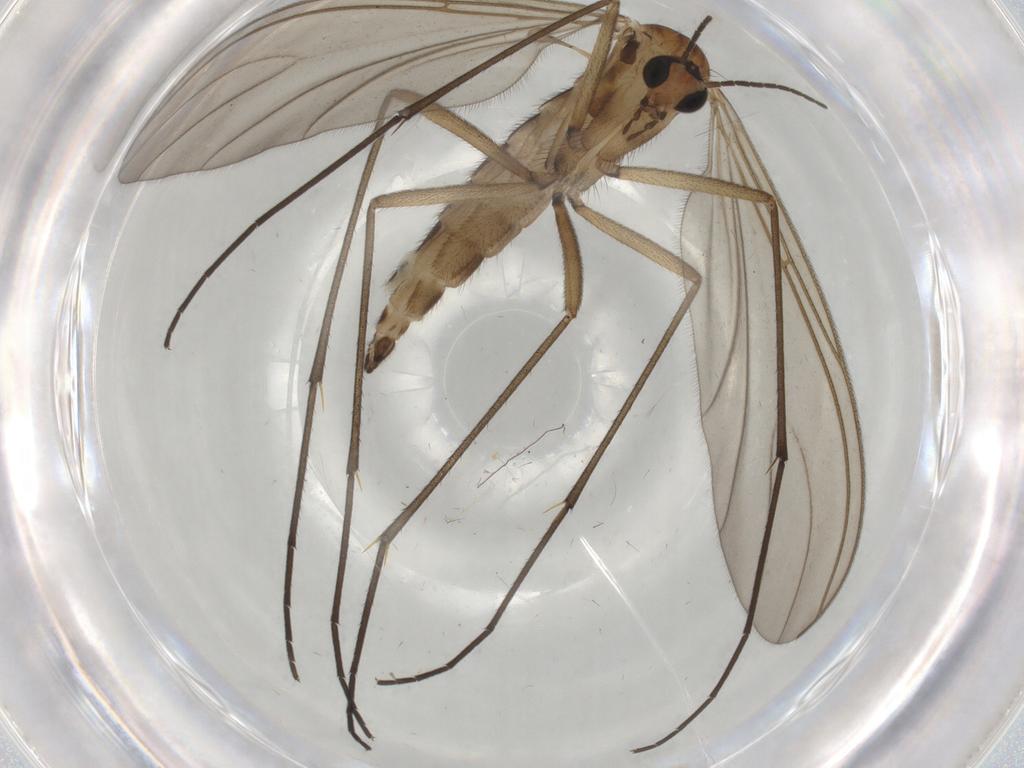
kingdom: Animalia
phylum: Arthropoda
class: Insecta
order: Diptera
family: Sciaridae
